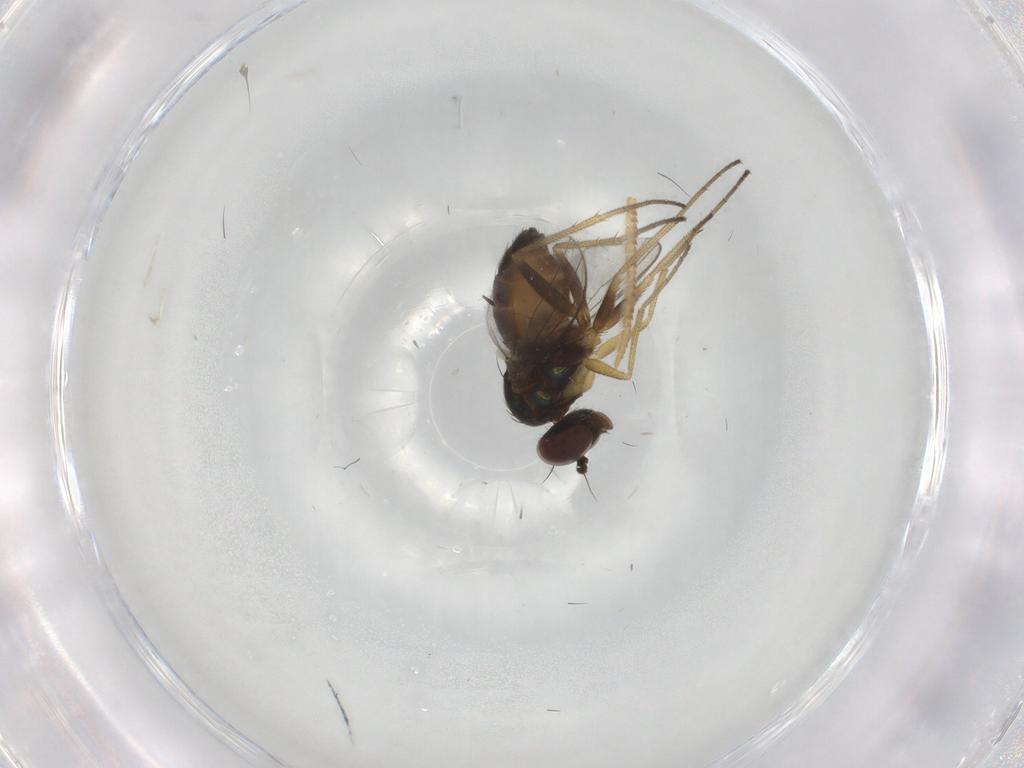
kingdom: Animalia
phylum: Arthropoda
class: Insecta
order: Diptera
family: Dolichopodidae
